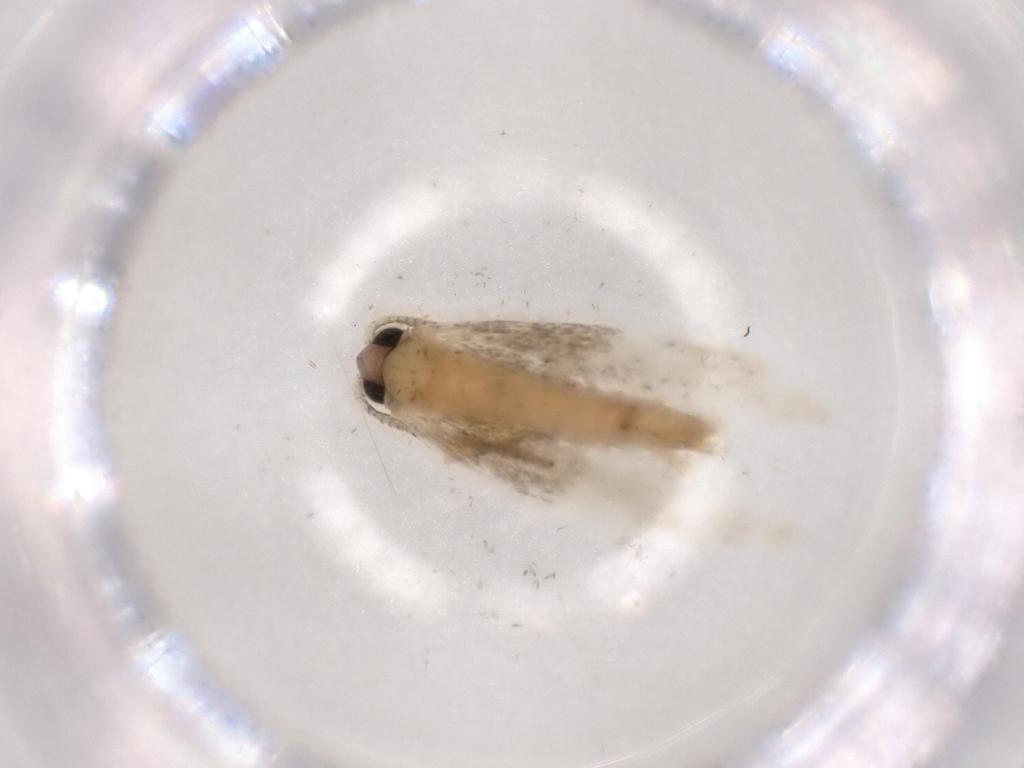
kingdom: Animalia
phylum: Arthropoda
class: Insecta
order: Lepidoptera
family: Tineidae
